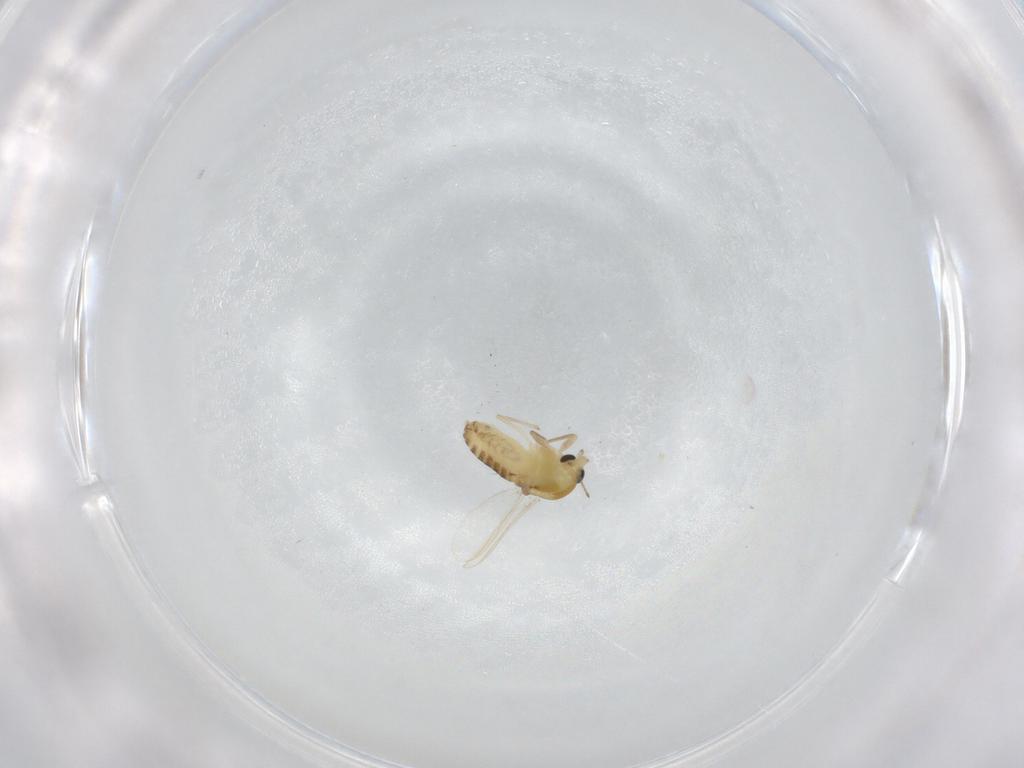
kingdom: Animalia
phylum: Arthropoda
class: Insecta
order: Diptera
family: Chironomidae
